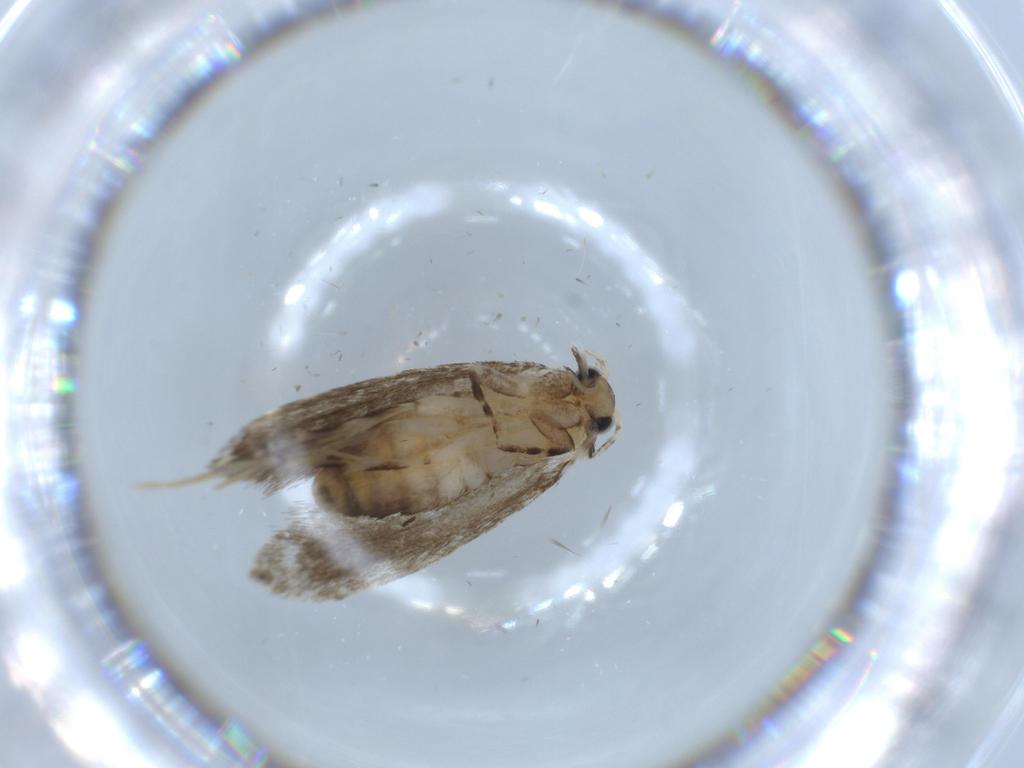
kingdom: Animalia
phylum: Arthropoda
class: Insecta
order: Lepidoptera
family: Tineidae
